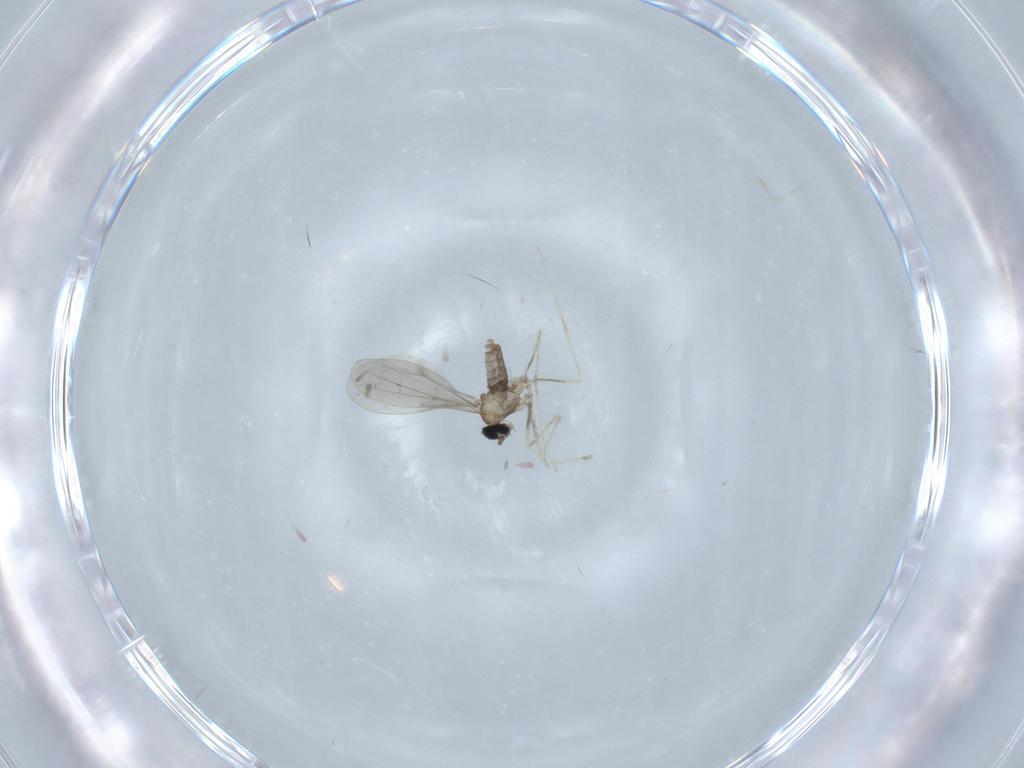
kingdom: Animalia
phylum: Arthropoda
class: Insecta
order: Diptera
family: Cecidomyiidae
